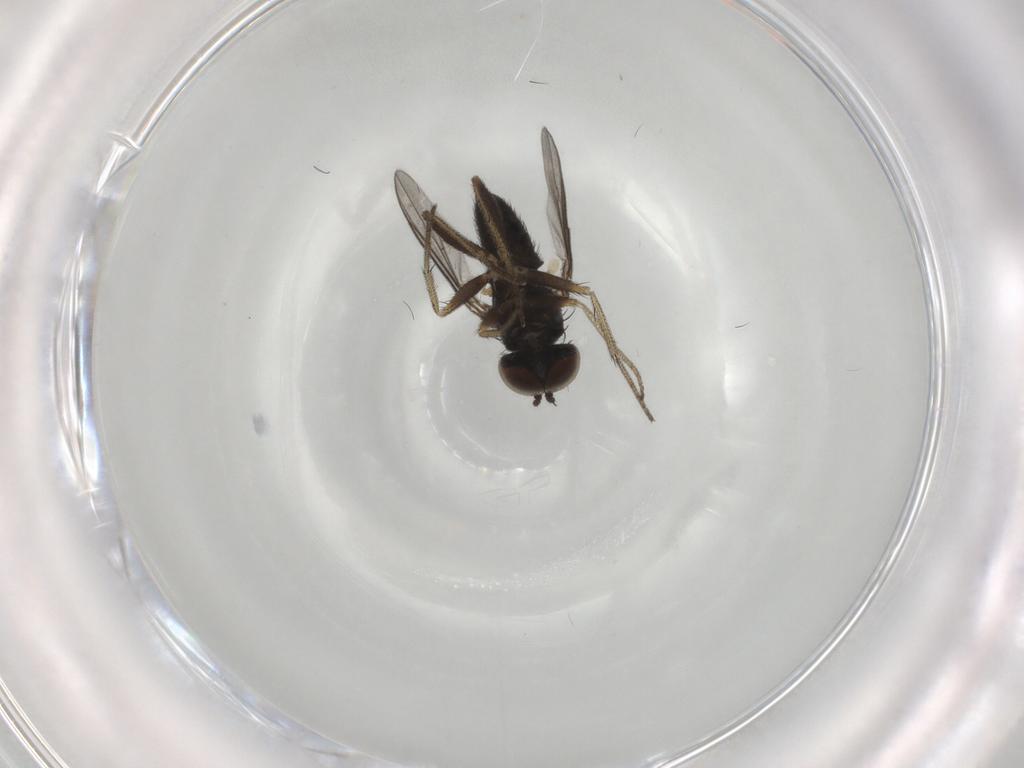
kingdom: Animalia
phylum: Arthropoda
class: Insecta
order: Diptera
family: Dolichopodidae
